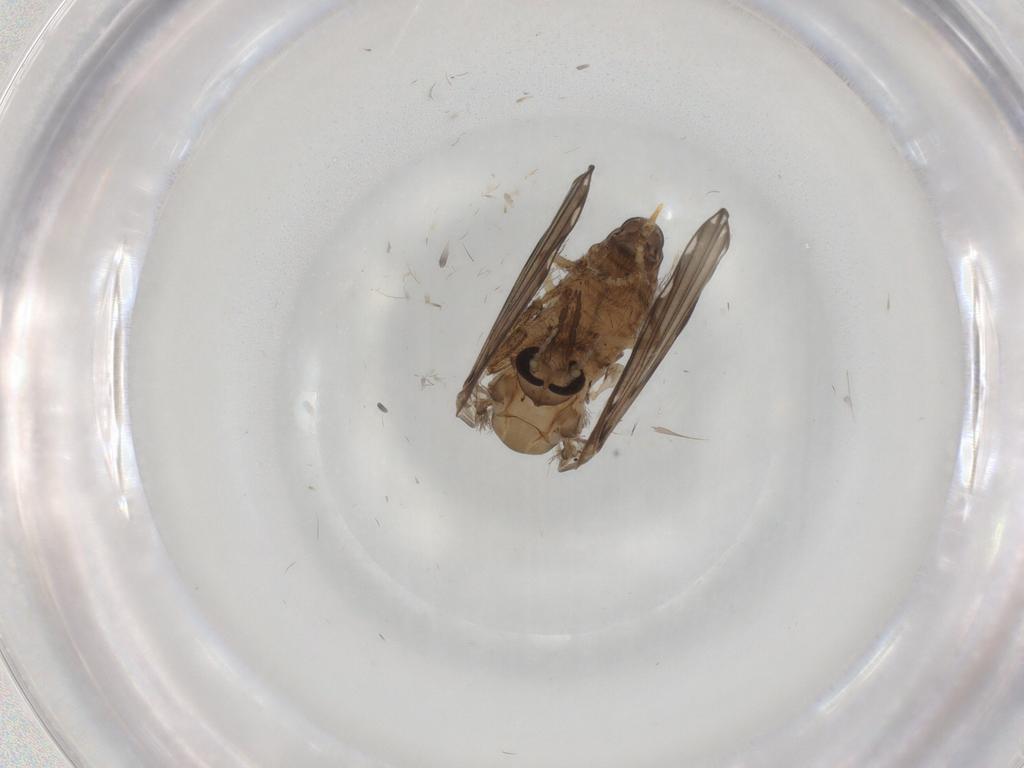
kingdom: Animalia
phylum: Arthropoda
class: Insecta
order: Diptera
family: Psychodidae
